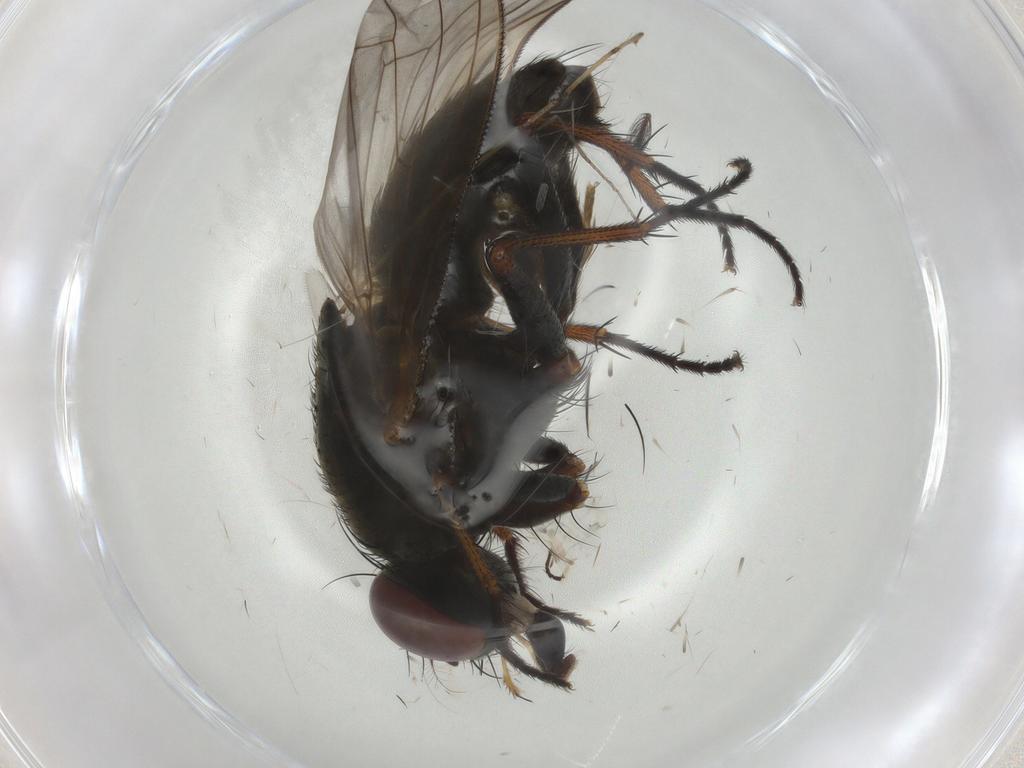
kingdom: Animalia
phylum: Arthropoda
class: Insecta
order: Diptera
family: Muscidae
